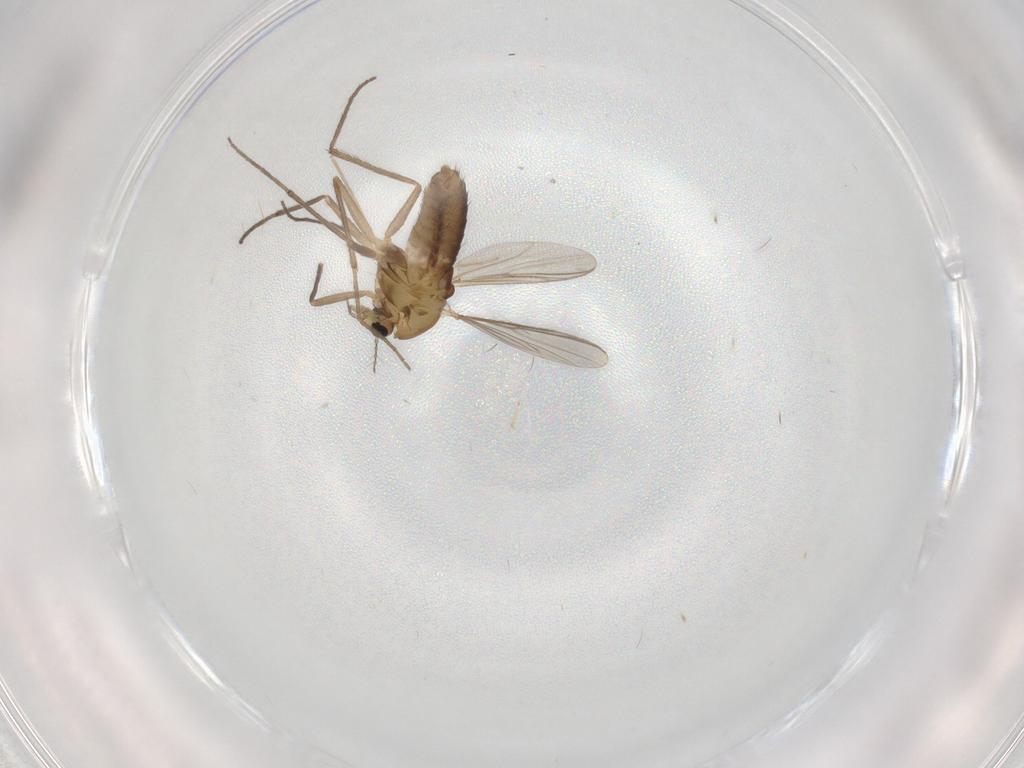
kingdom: Animalia
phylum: Arthropoda
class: Insecta
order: Diptera
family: Chironomidae
